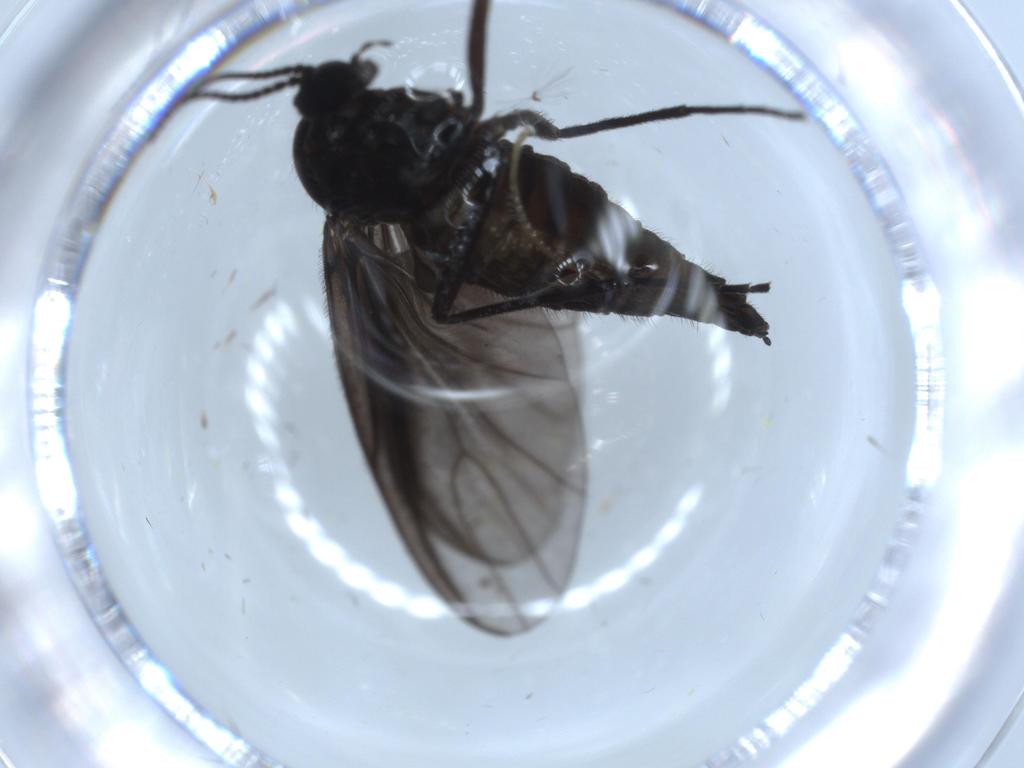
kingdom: Animalia
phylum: Arthropoda
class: Insecta
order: Diptera
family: Sciaridae
